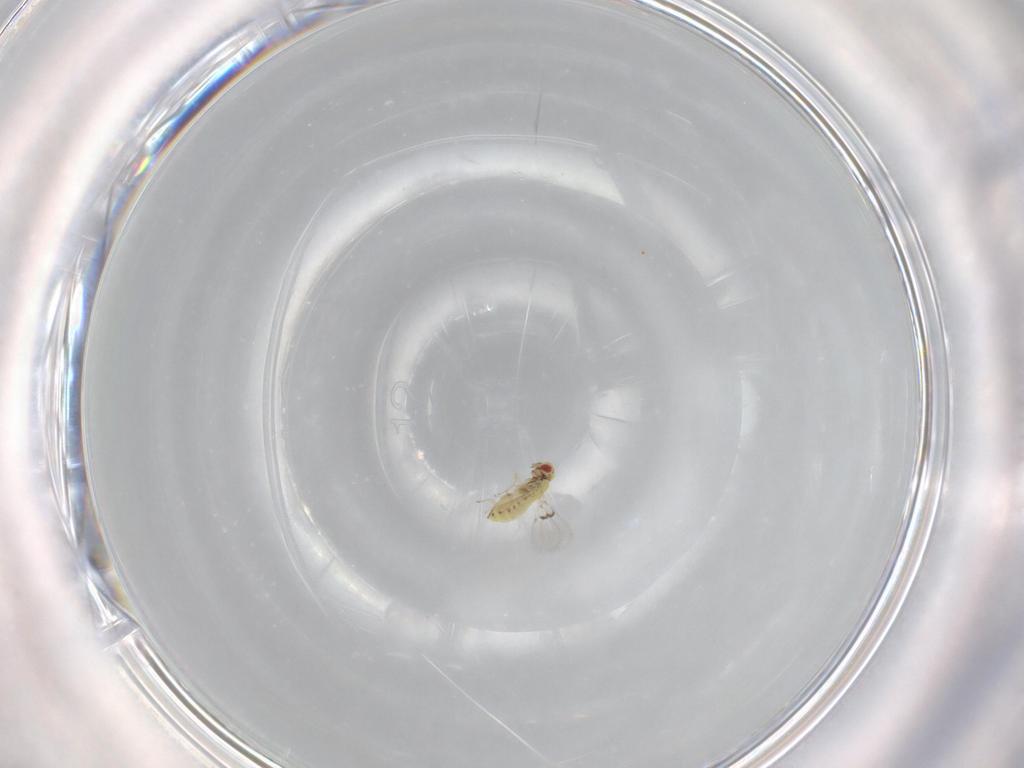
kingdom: Animalia
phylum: Arthropoda
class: Insecta
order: Hymenoptera
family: Trichogrammatidae
